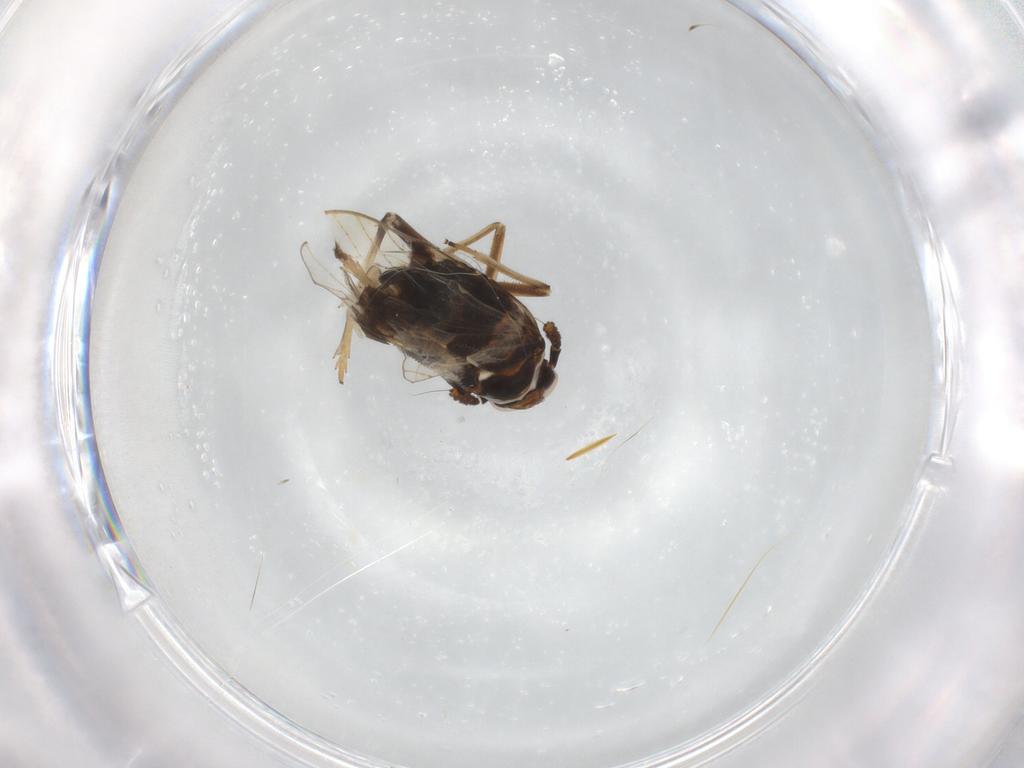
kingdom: Animalia
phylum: Arthropoda
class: Insecta
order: Hemiptera
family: Delphacidae
